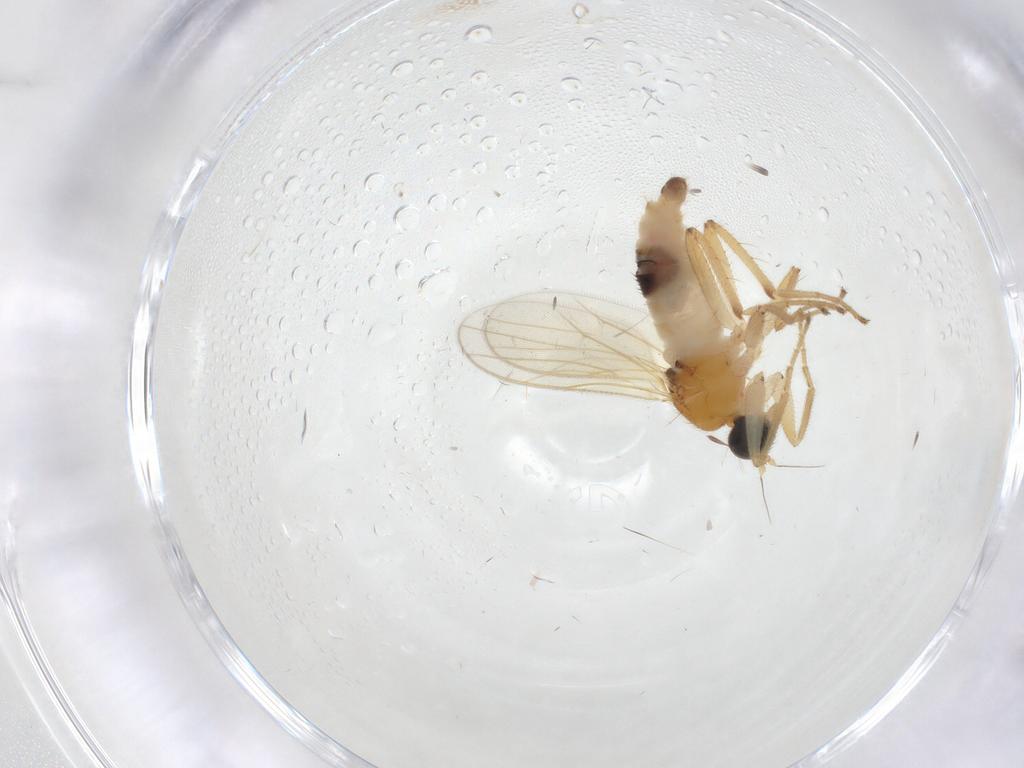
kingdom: Animalia
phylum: Arthropoda
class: Insecta
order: Diptera
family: Hybotidae
